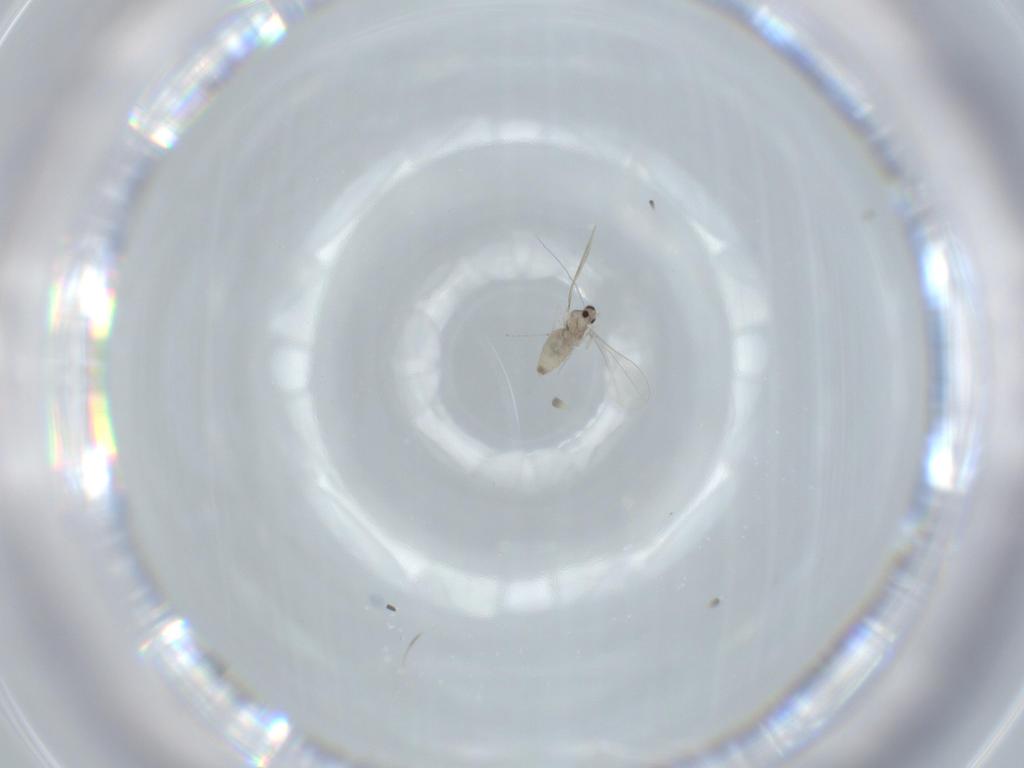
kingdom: Animalia
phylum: Arthropoda
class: Insecta
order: Diptera
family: Cecidomyiidae
